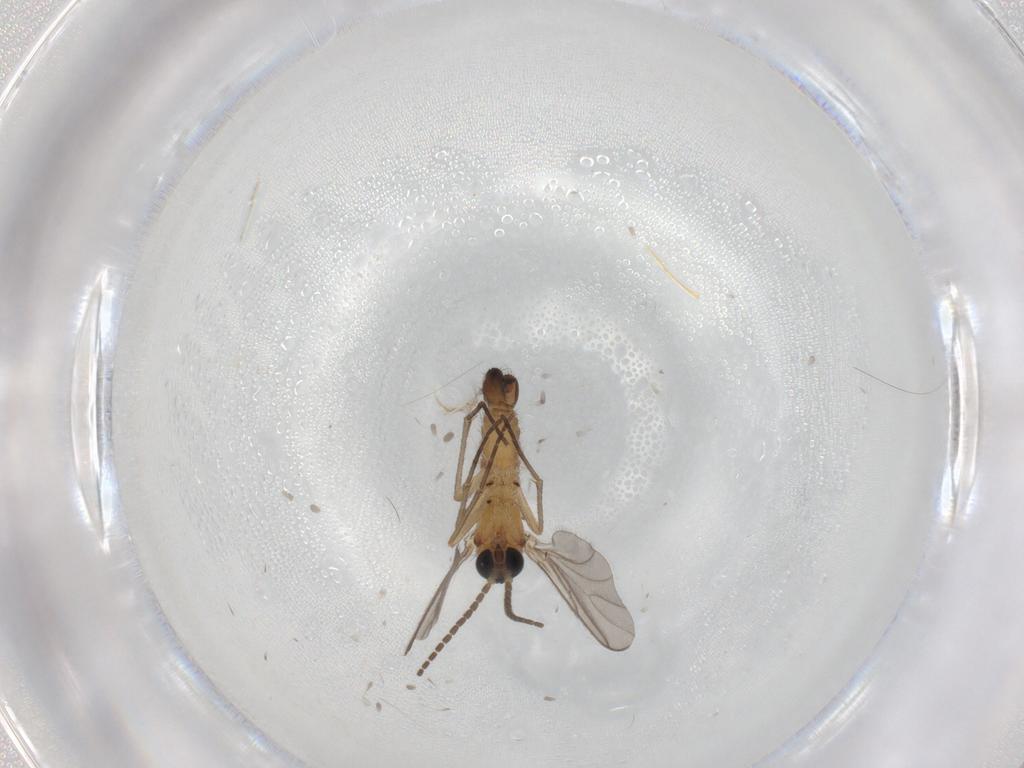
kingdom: Animalia
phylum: Arthropoda
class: Insecta
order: Diptera
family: Sciaridae
